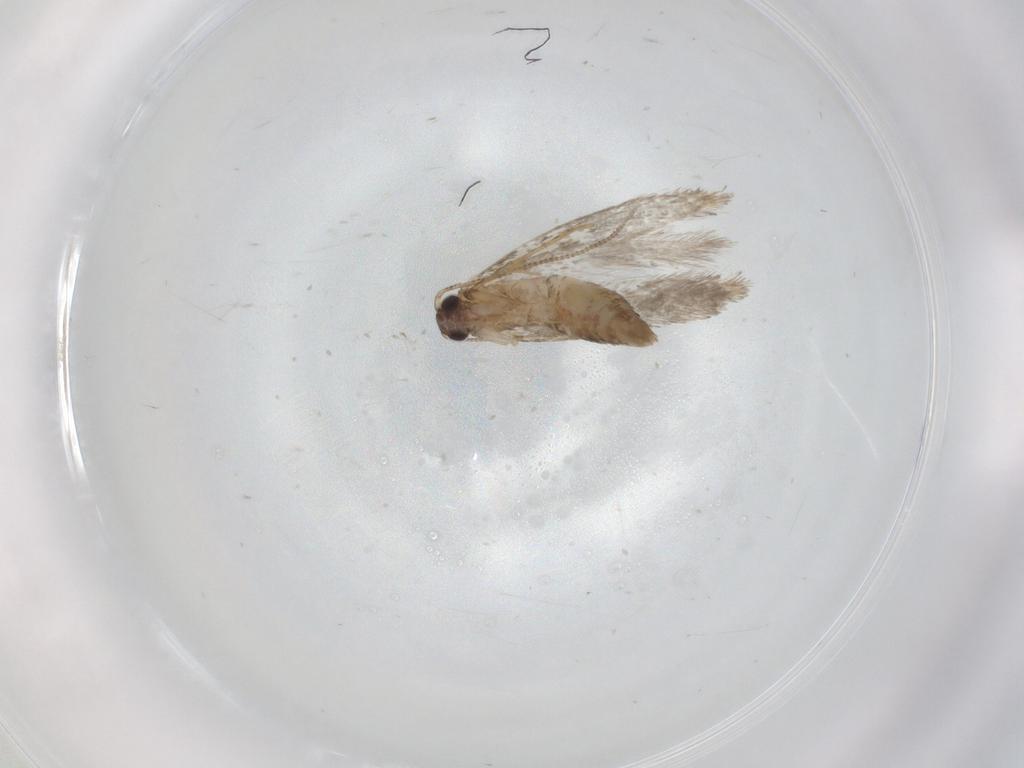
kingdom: Animalia
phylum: Arthropoda
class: Insecta
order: Lepidoptera
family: Tineidae
